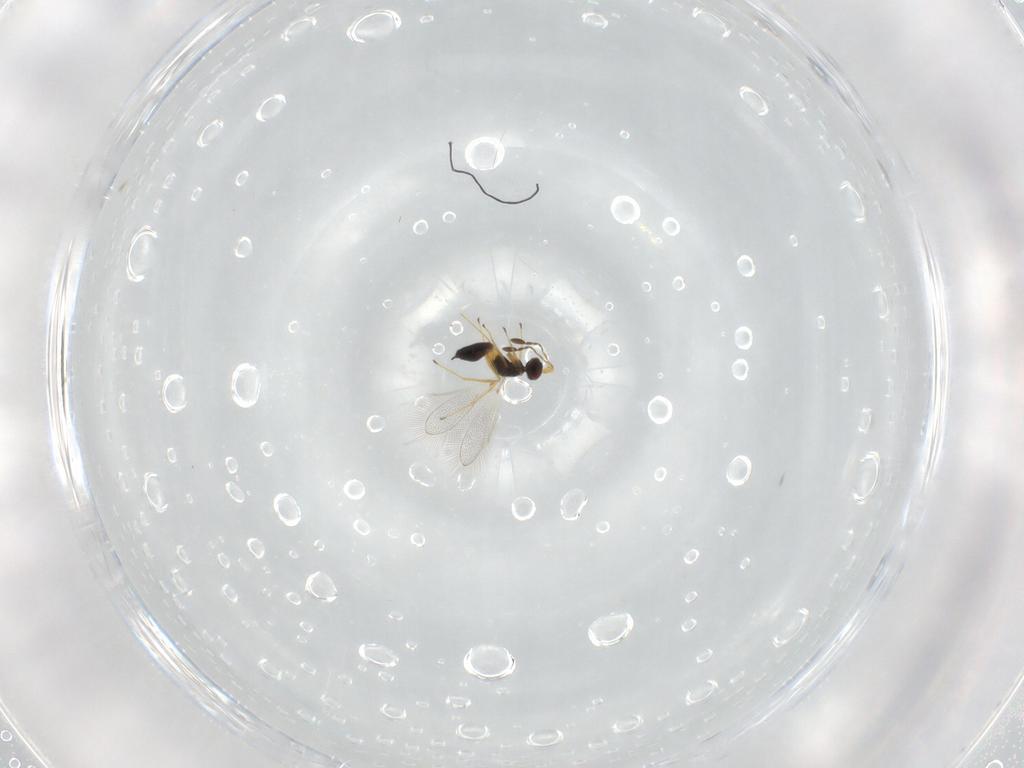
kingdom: Animalia
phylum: Arthropoda
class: Insecta
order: Hymenoptera
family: Mymaridae
